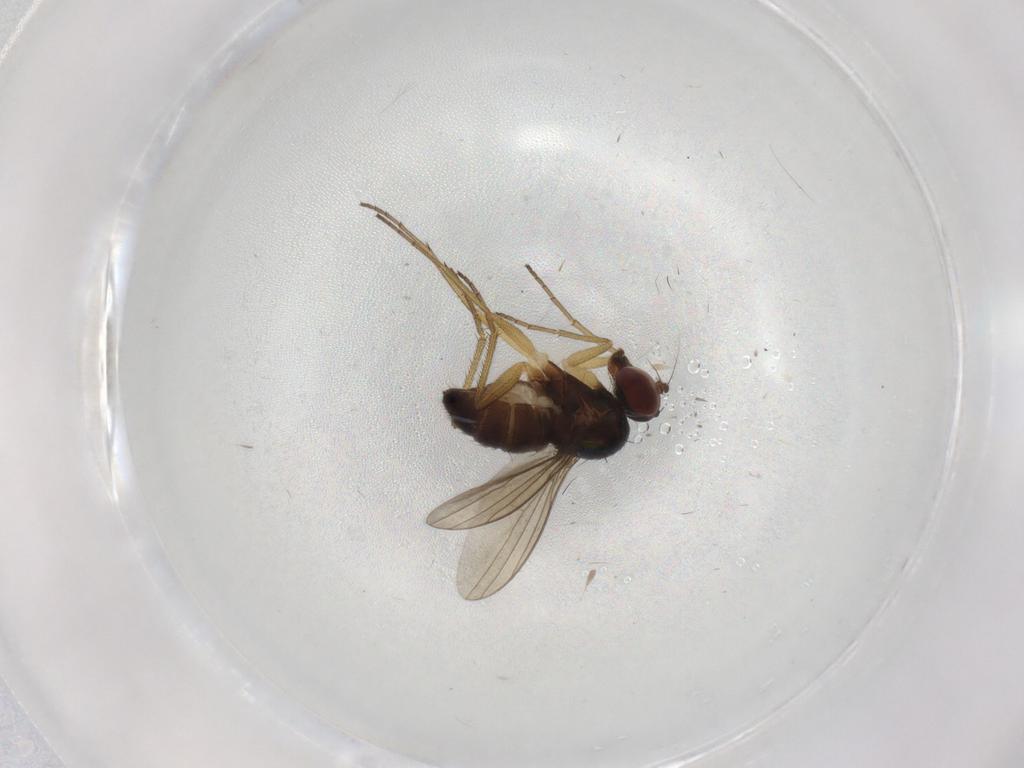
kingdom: Animalia
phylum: Arthropoda
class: Insecta
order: Diptera
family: Dolichopodidae
